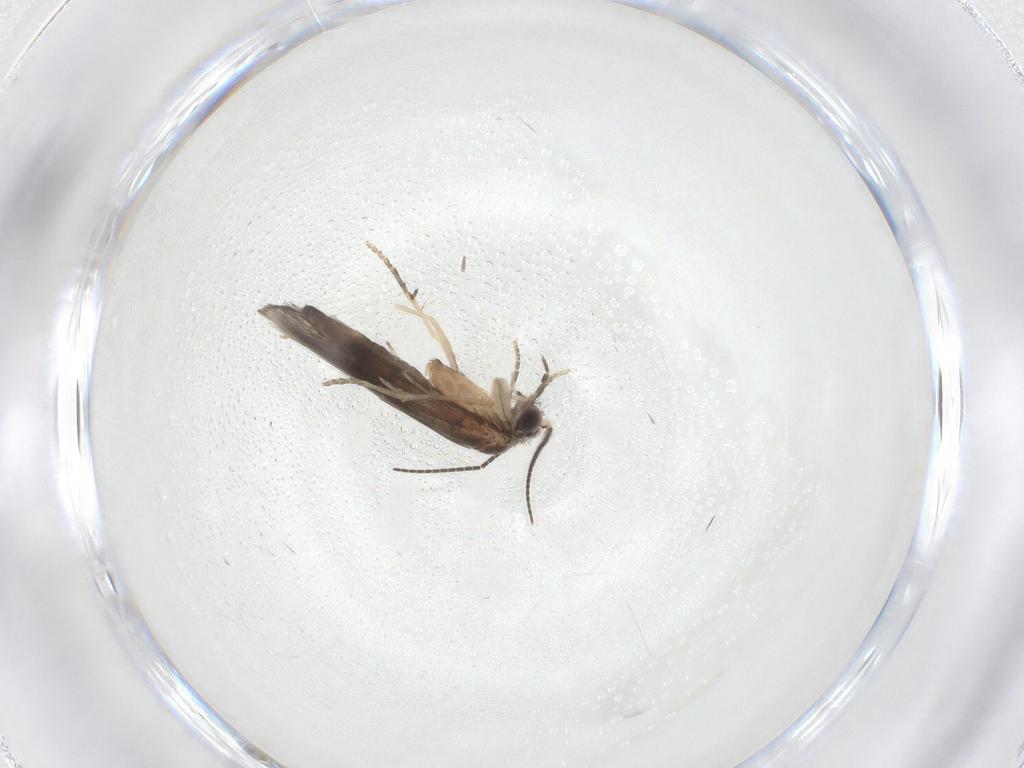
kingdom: Animalia
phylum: Arthropoda
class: Insecta
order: Trichoptera
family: Hydroptilidae
